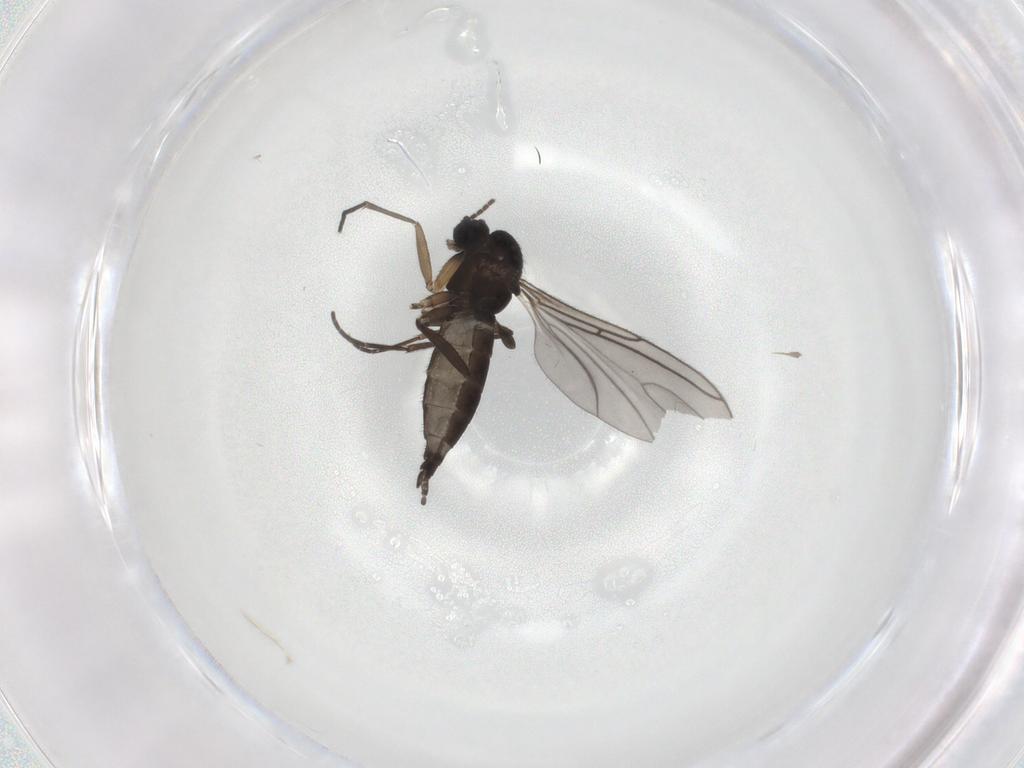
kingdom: Animalia
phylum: Arthropoda
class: Insecta
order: Diptera
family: Sciaridae
